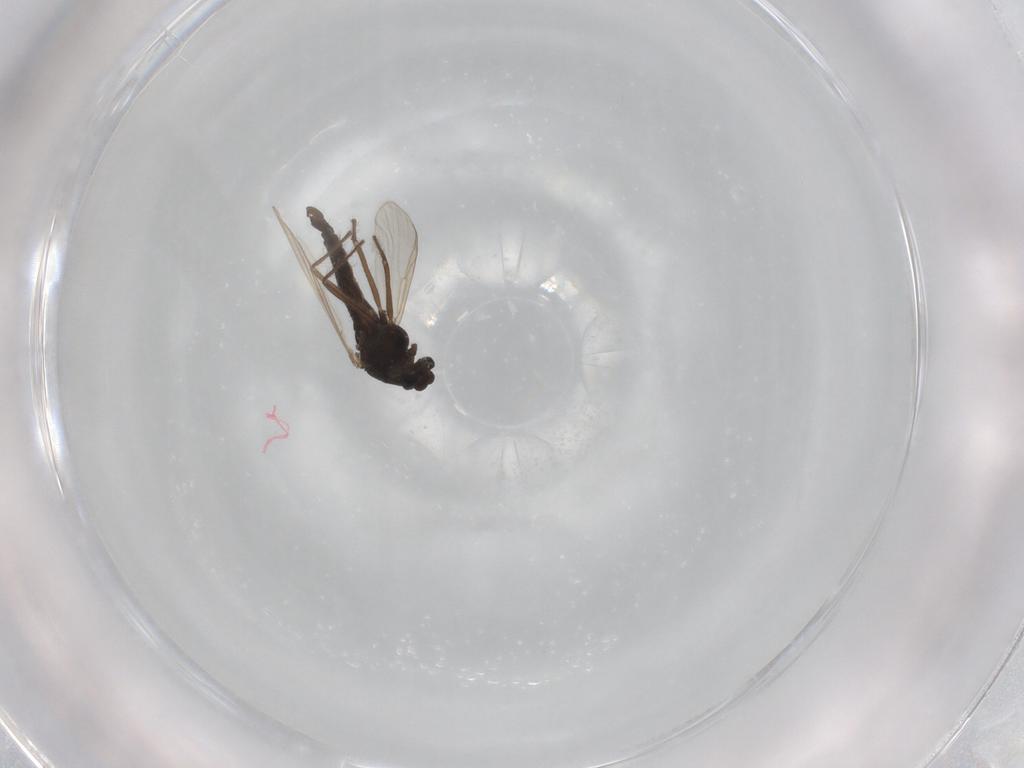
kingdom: Animalia
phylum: Arthropoda
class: Insecta
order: Diptera
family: Chironomidae
